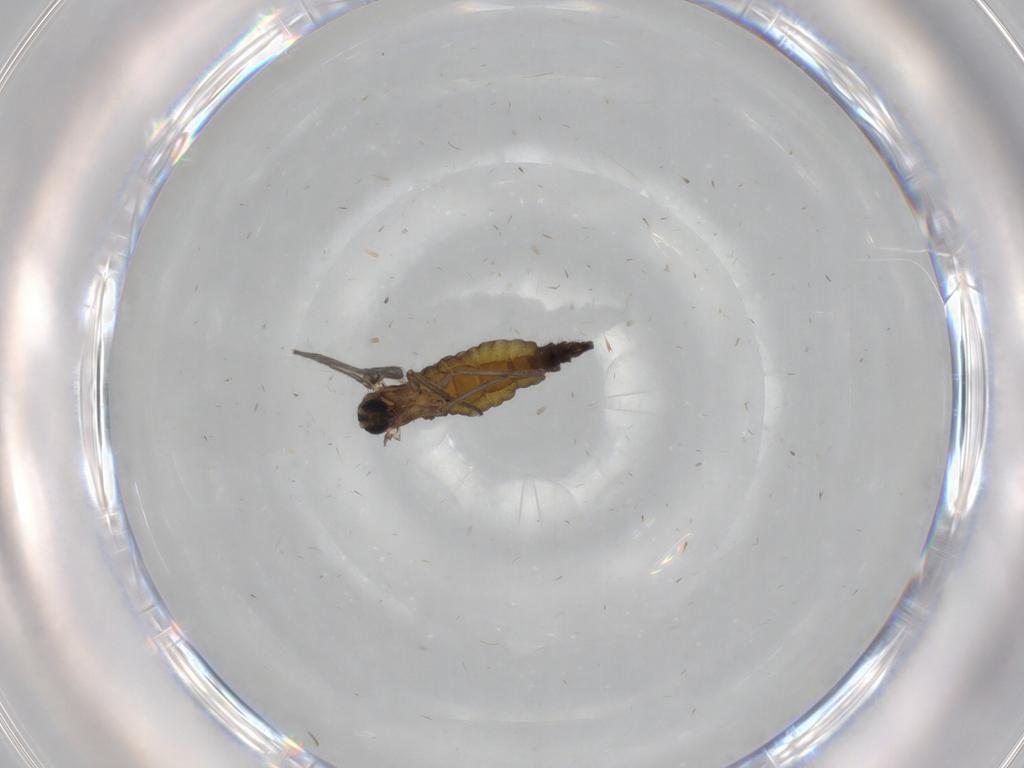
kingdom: Animalia
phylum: Arthropoda
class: Insecta
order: Diptera
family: Sciaridae
